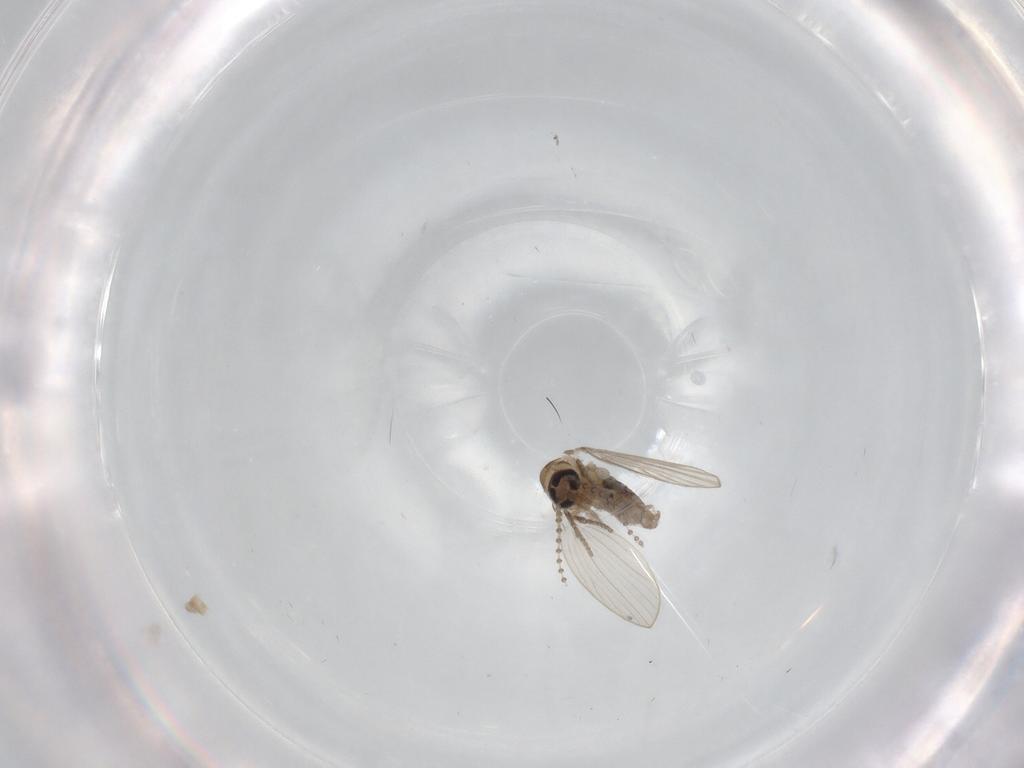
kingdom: Animalia
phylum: Arthropoda
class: Insecta
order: Diptera
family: Psychodidae
